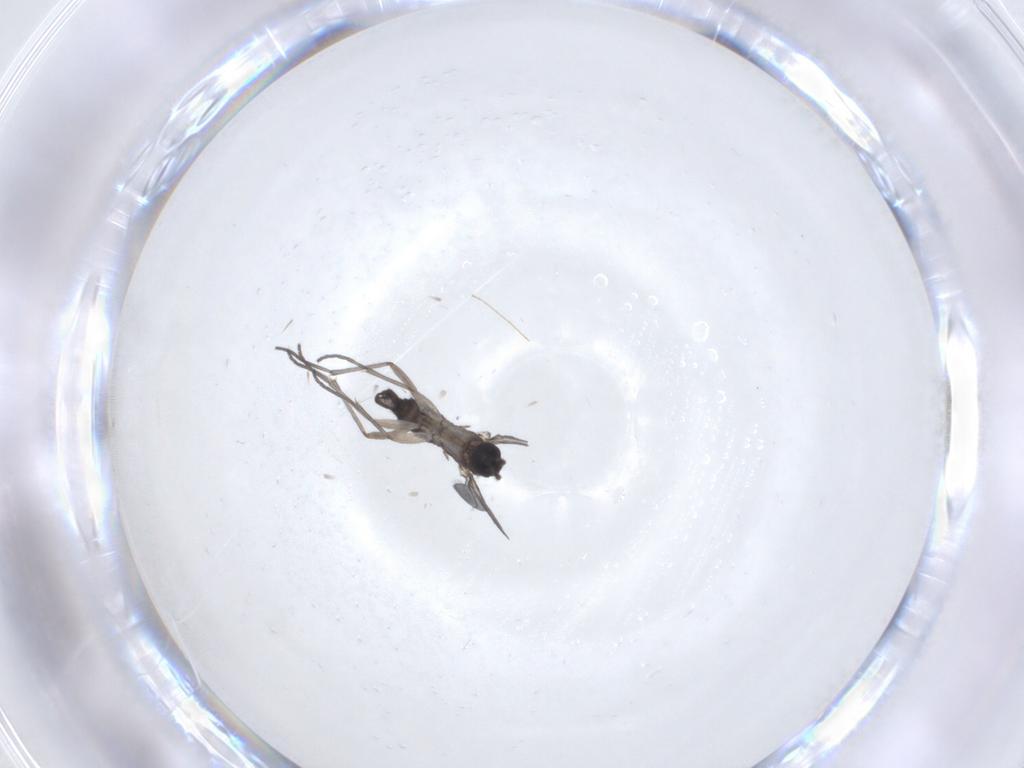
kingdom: Animalia
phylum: Arthropoda
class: Insecta
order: Diptera
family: Sciaridae
